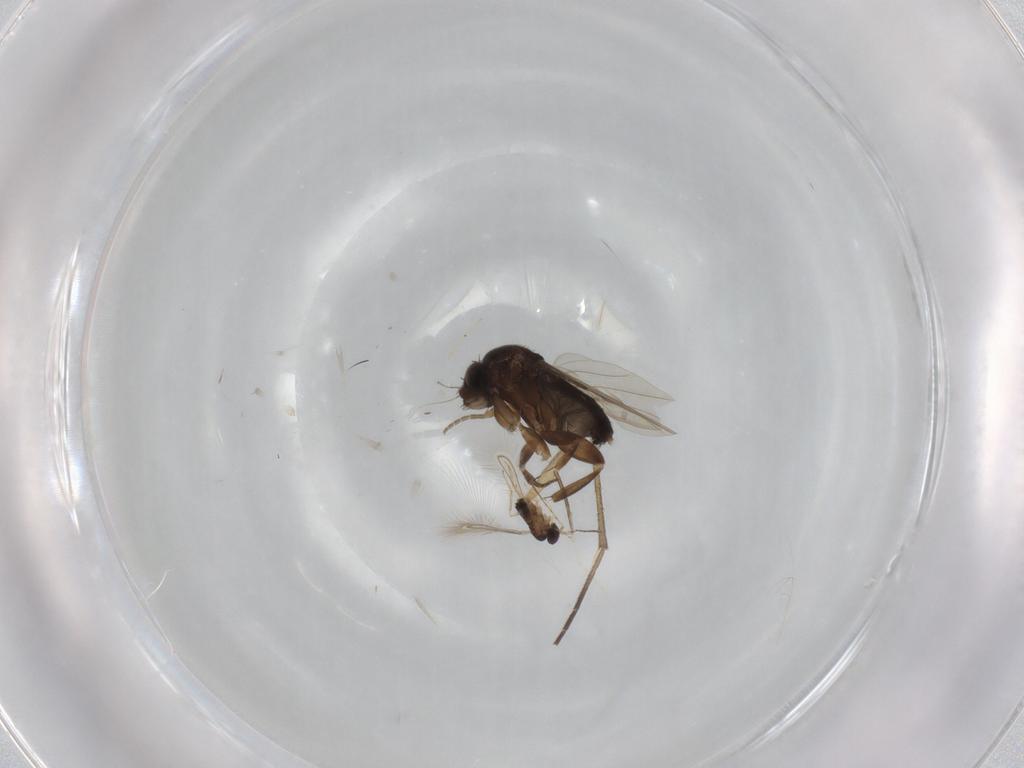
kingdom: Animalia
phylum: Arthropoda
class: Insecta
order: Diptera
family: Phoridae
